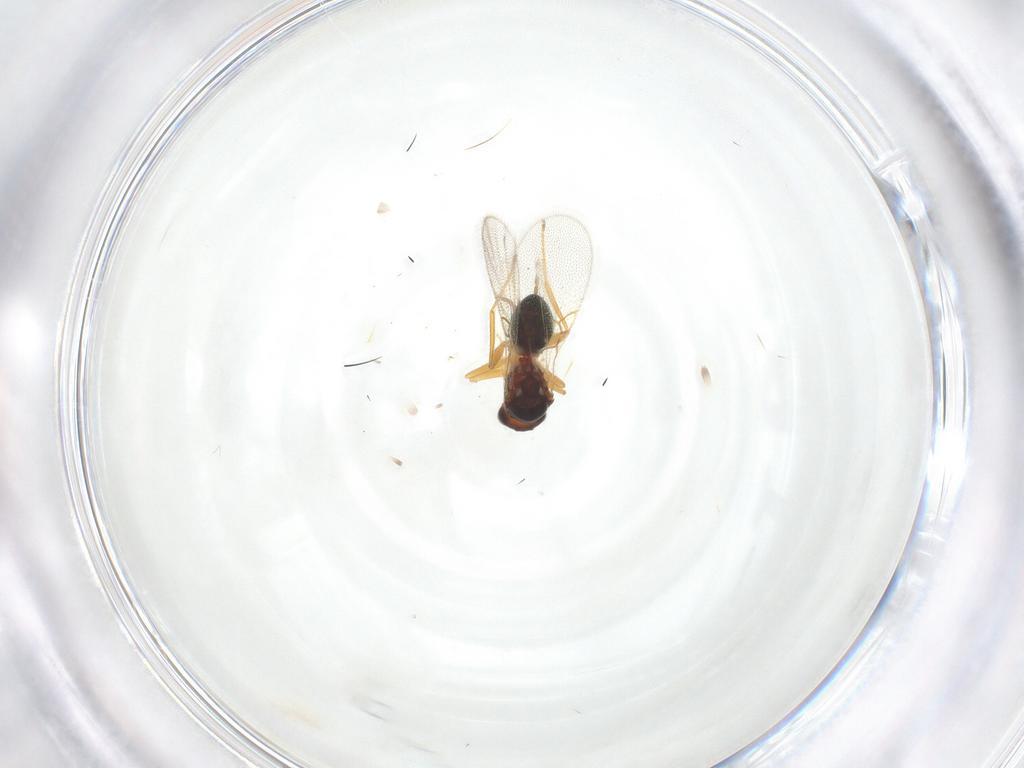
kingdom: Animalia
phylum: Arthropoda
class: Insecta
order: Hymenoptera
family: Figitidae
